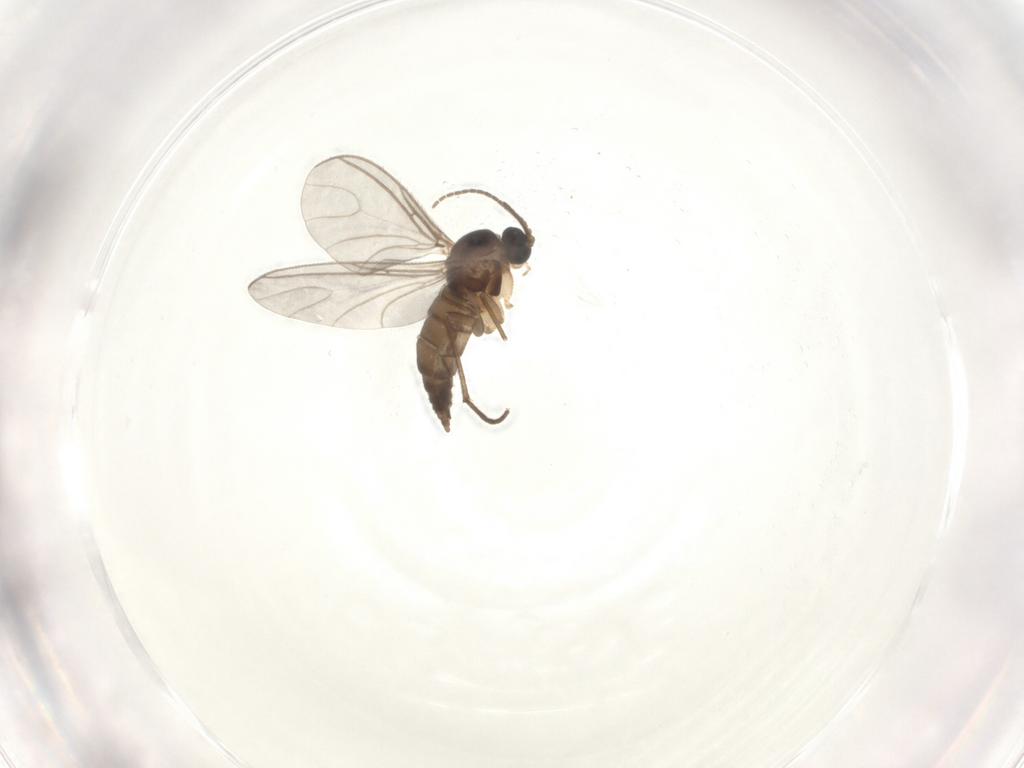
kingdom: Animalia
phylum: Arthropoda
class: Insecta
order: Diptera
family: Sciaridae
